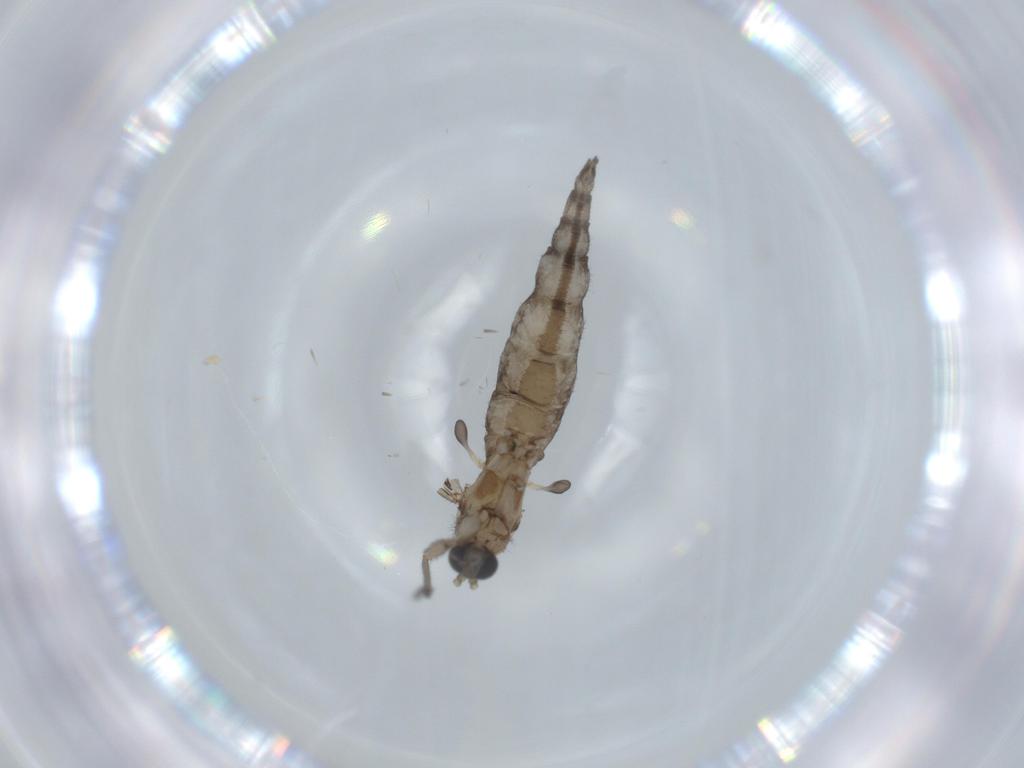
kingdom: Animalia
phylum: Arthropoda
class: Insecta
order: Diptera
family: Sciaridae
